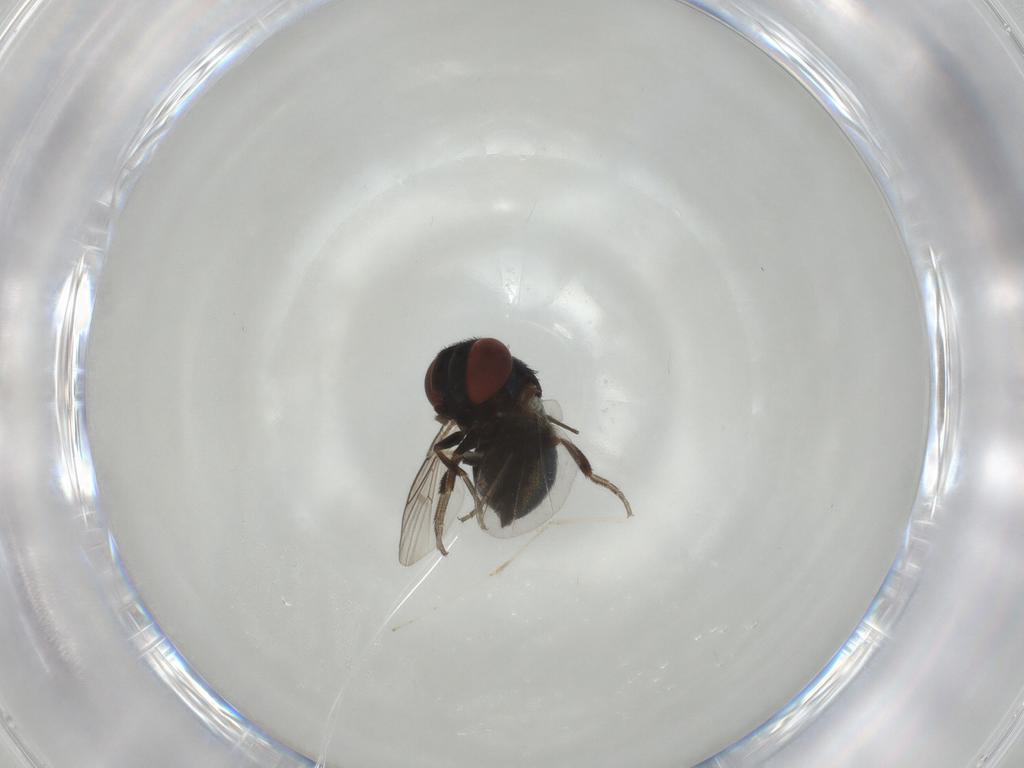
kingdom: Animalia
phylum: Arthropoda
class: Insecta
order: Diptera
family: Cryptochetidae
